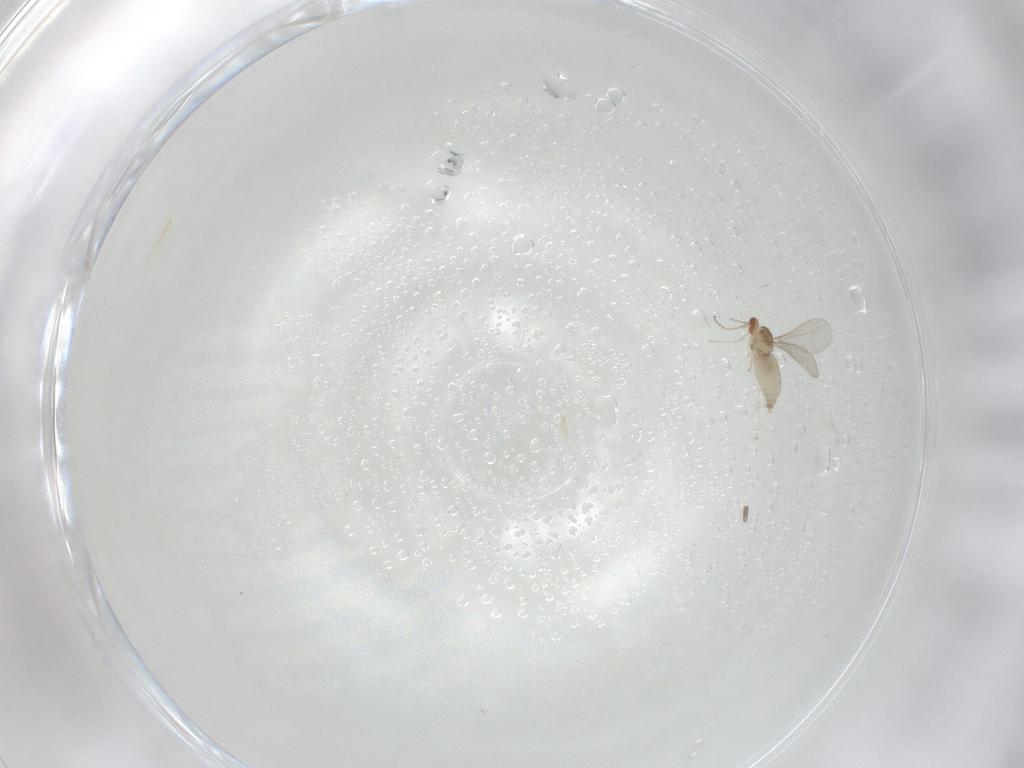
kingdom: Animalia
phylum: Arthropoda
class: Insecta
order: Diptera
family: Cecidomyiidae
